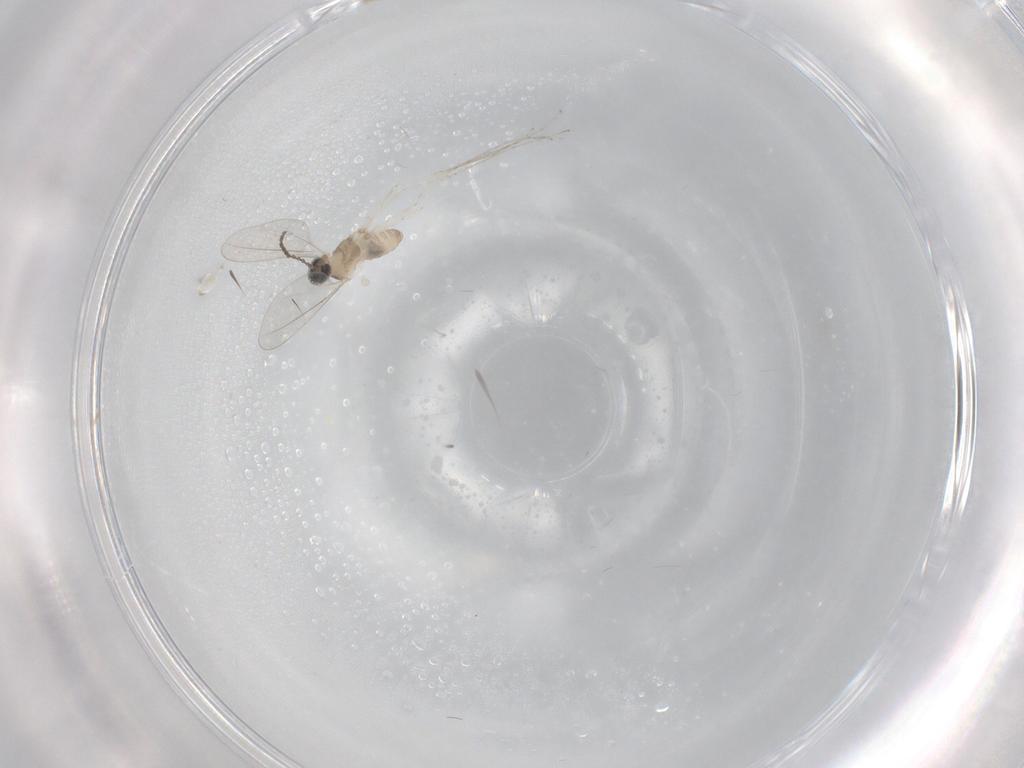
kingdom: Animalia
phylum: Arthropoda
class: Insecta
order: Diptera
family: Cecidomyiidae
